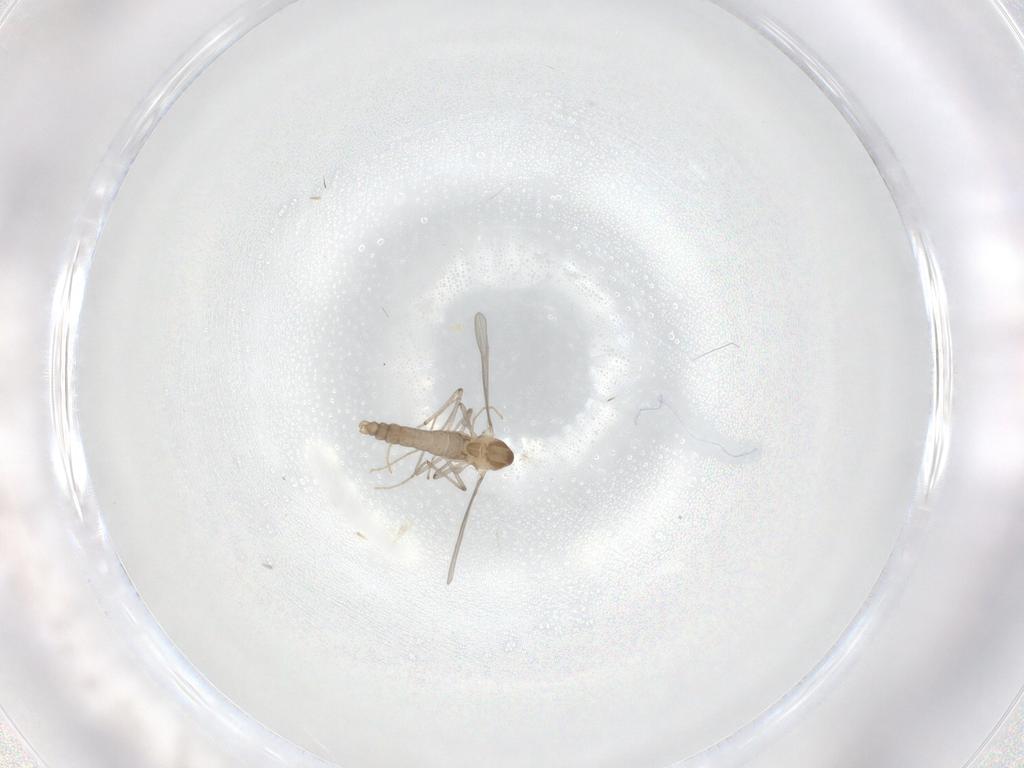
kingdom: Animalia
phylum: Arthropoda
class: Insecta
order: Diptera
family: Chironomidae
